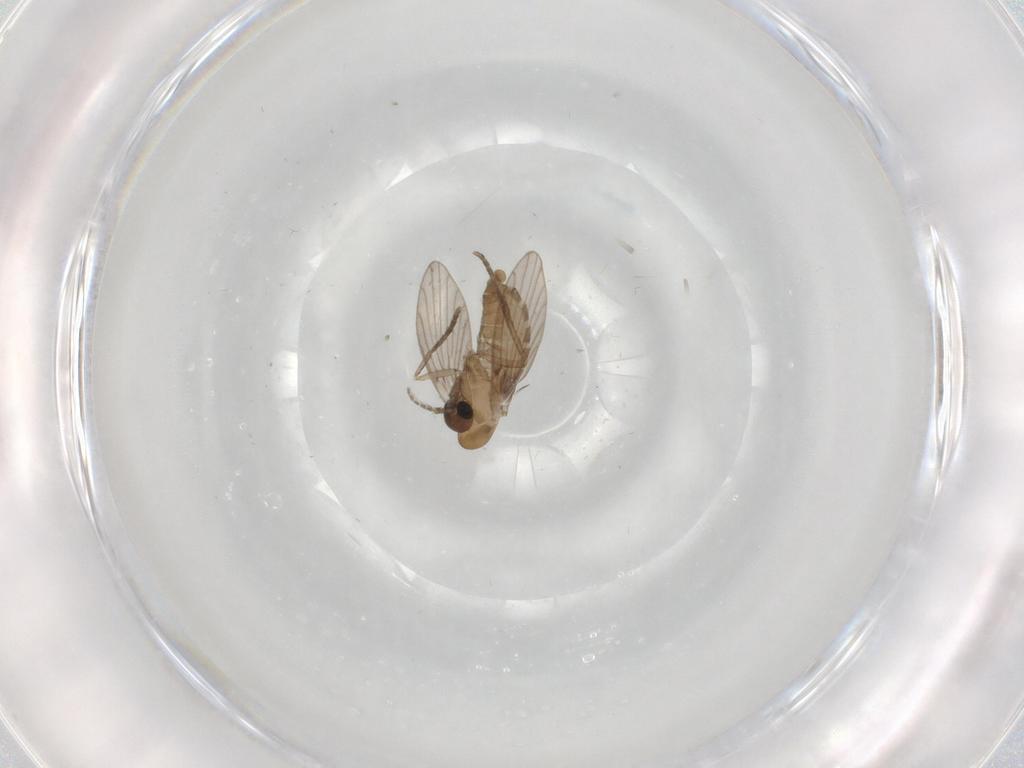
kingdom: Animalia
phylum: Arthropoda
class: Insecta
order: Diptera
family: Psychodidae
